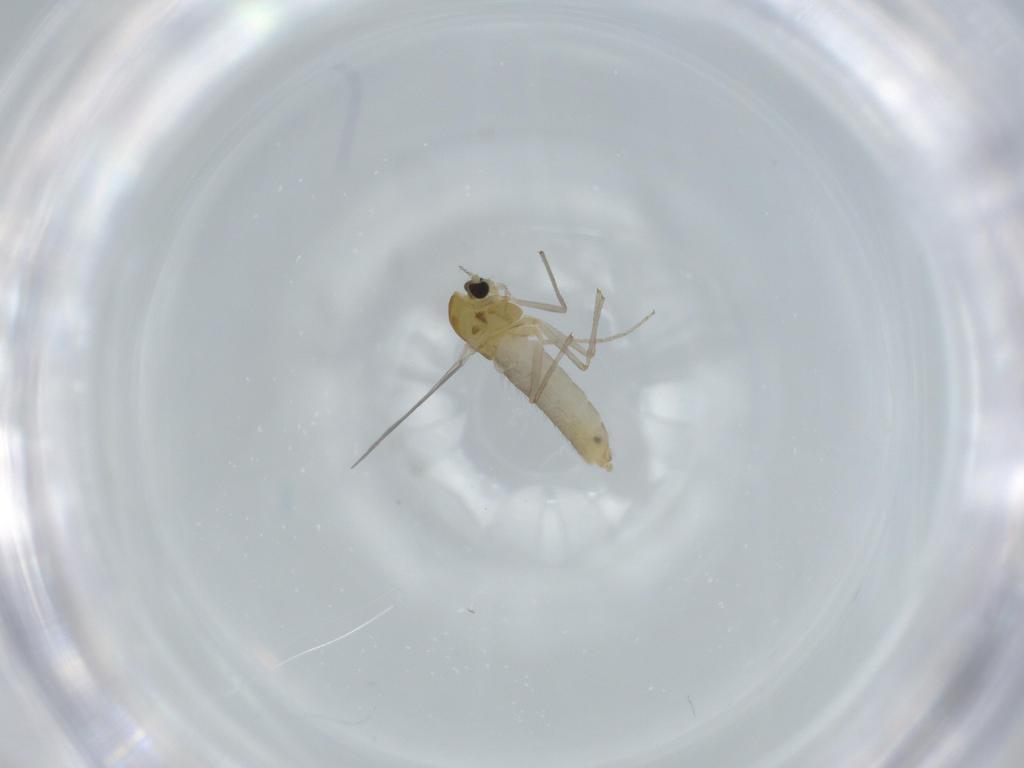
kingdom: Animalia
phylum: Arthropoda
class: Insecta
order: Diptera
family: Chironomidae
